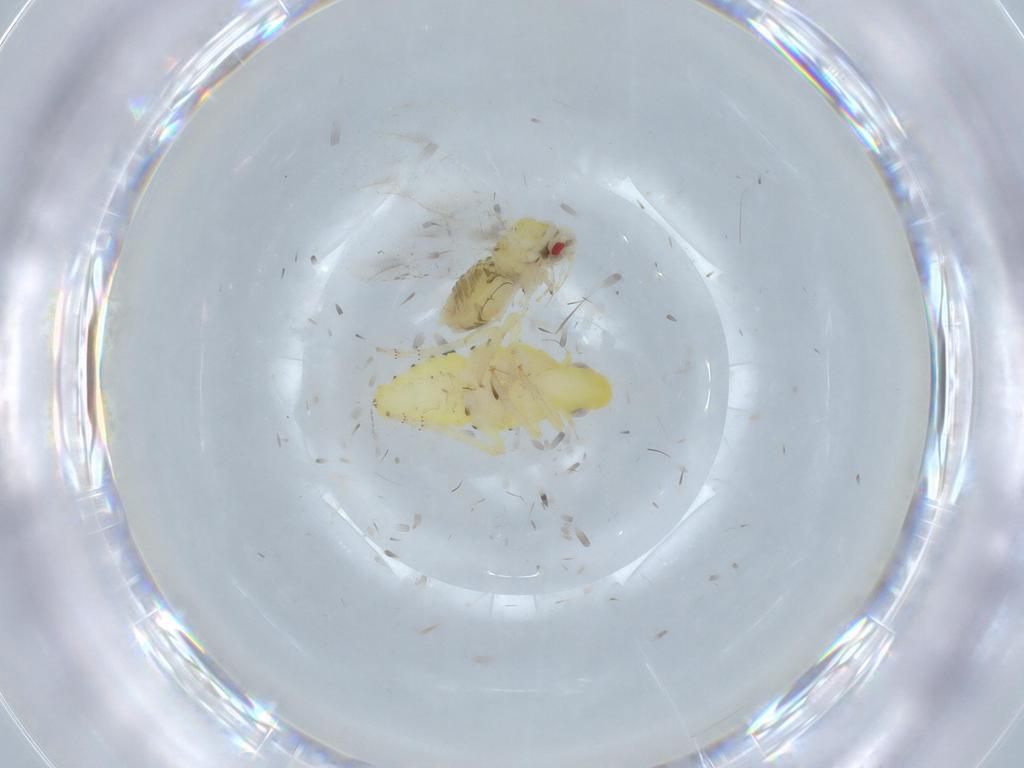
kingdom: Animalia
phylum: Arthropoda
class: Insecta
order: Hemiptera
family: Tropiduchidae
